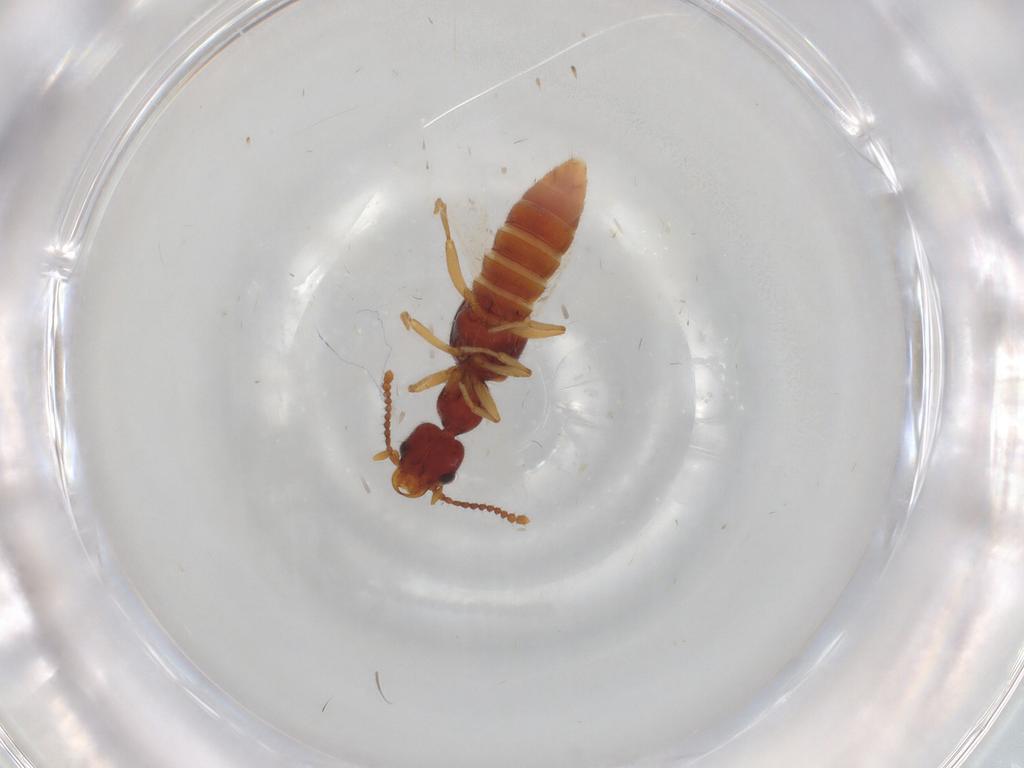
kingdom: Animalia
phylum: Arthropoda
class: Insecta
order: Coleoptera
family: Staphylinidae
